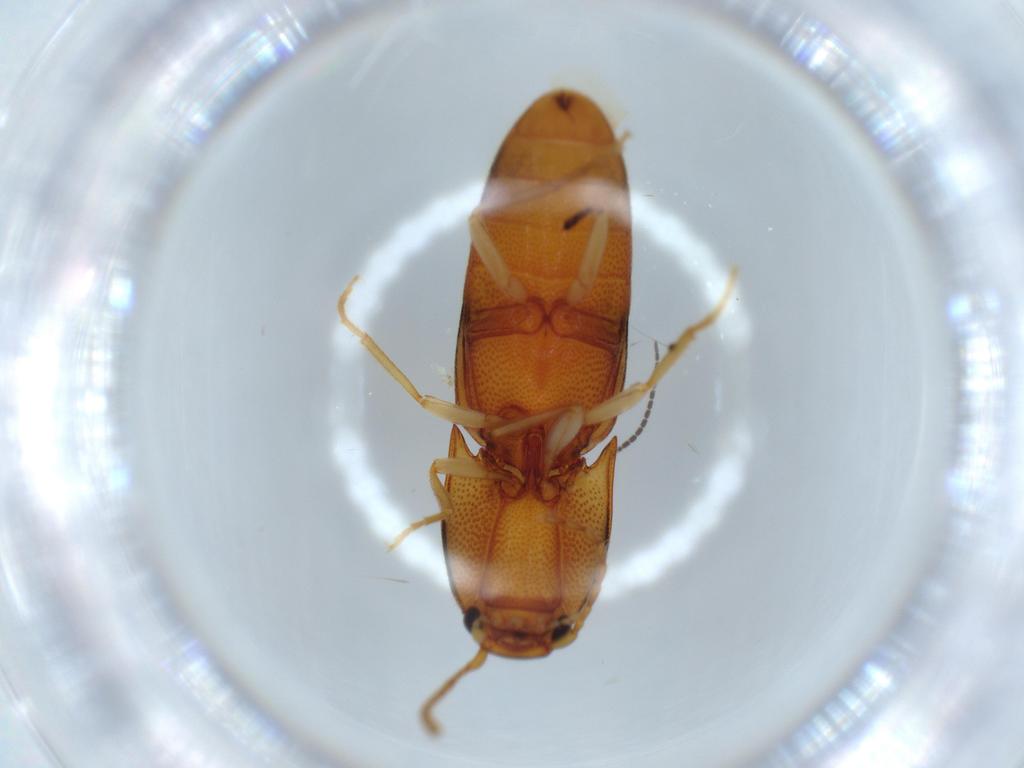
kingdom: Animalia
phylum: Arthropoda
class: Insecta
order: Coleoptera
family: Curculionidae
